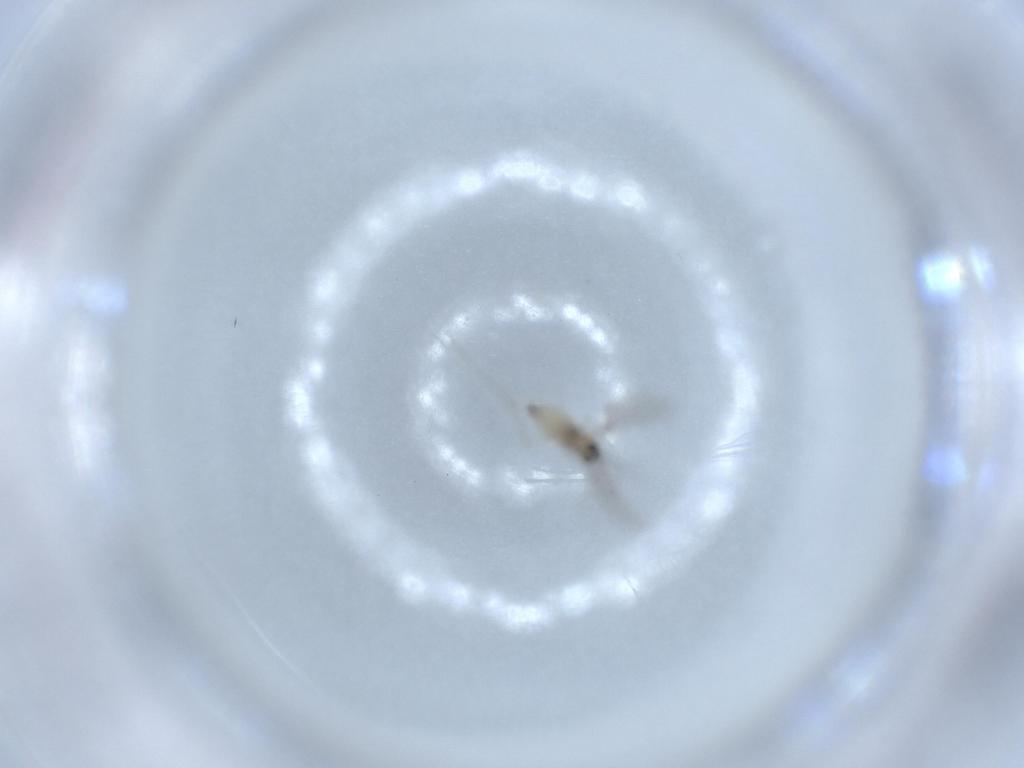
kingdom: Animalia
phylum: Arthropoda
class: Insecta
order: Diptera
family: Cecidomyiidae
